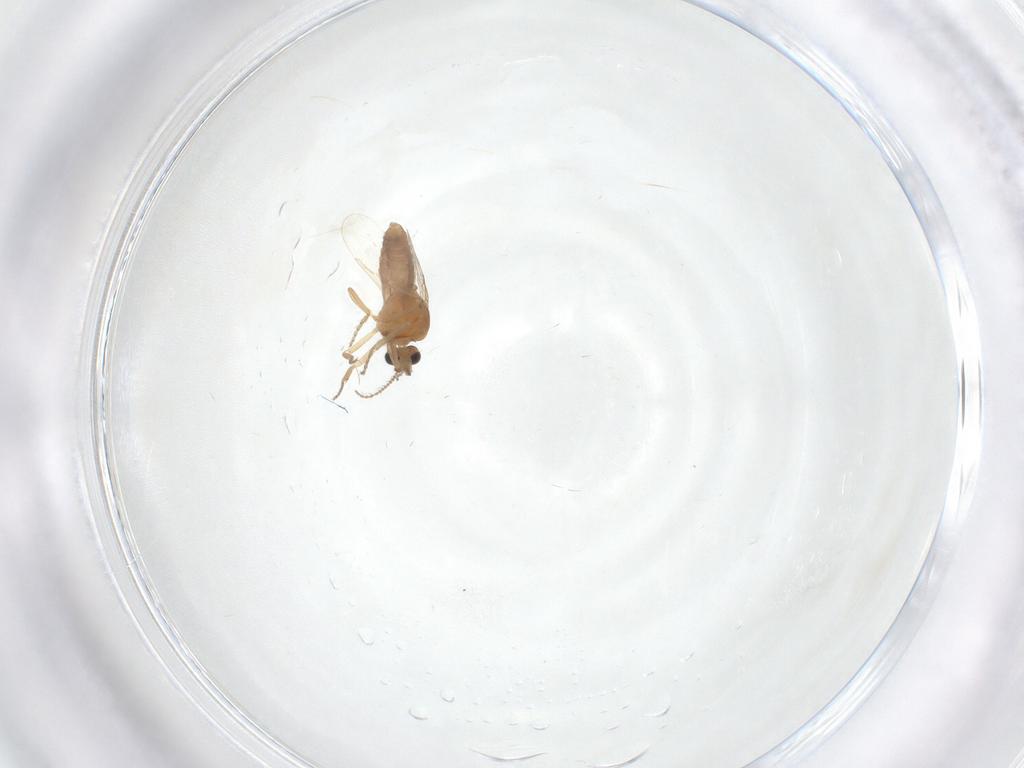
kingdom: Animalia
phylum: Arthropoda
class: Insecta
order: Diptera
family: Ceratopogonidae
